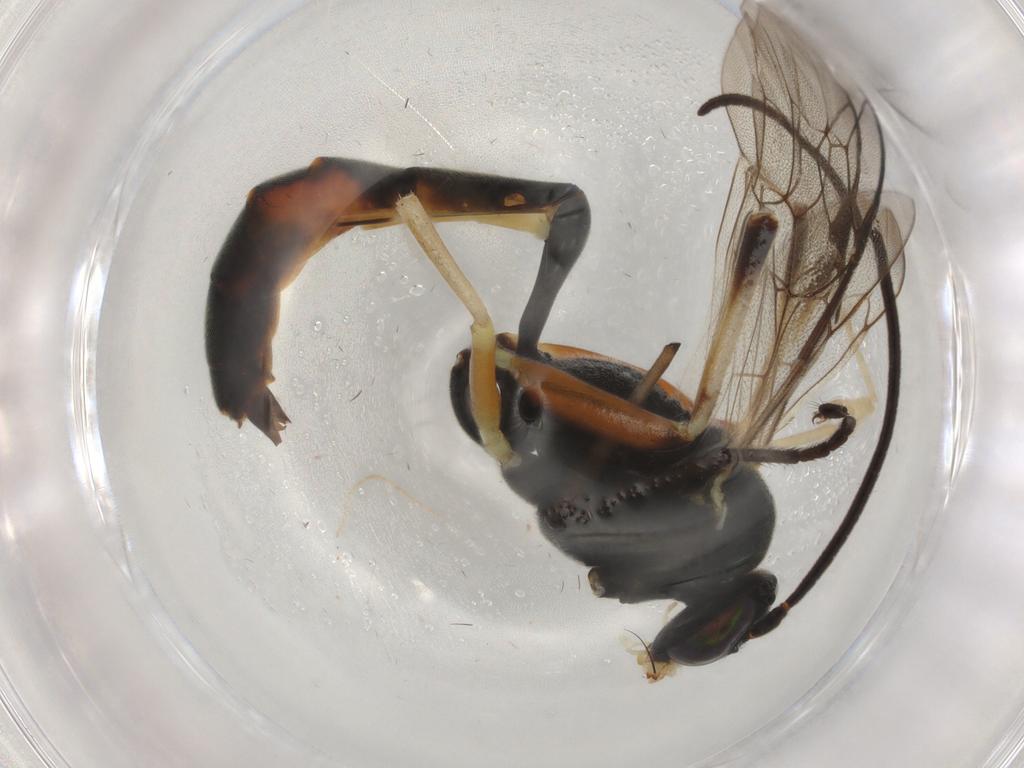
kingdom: Animalia
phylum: Arthropoda
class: Insecta
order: Hymenoptera
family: Ichneumonidae
